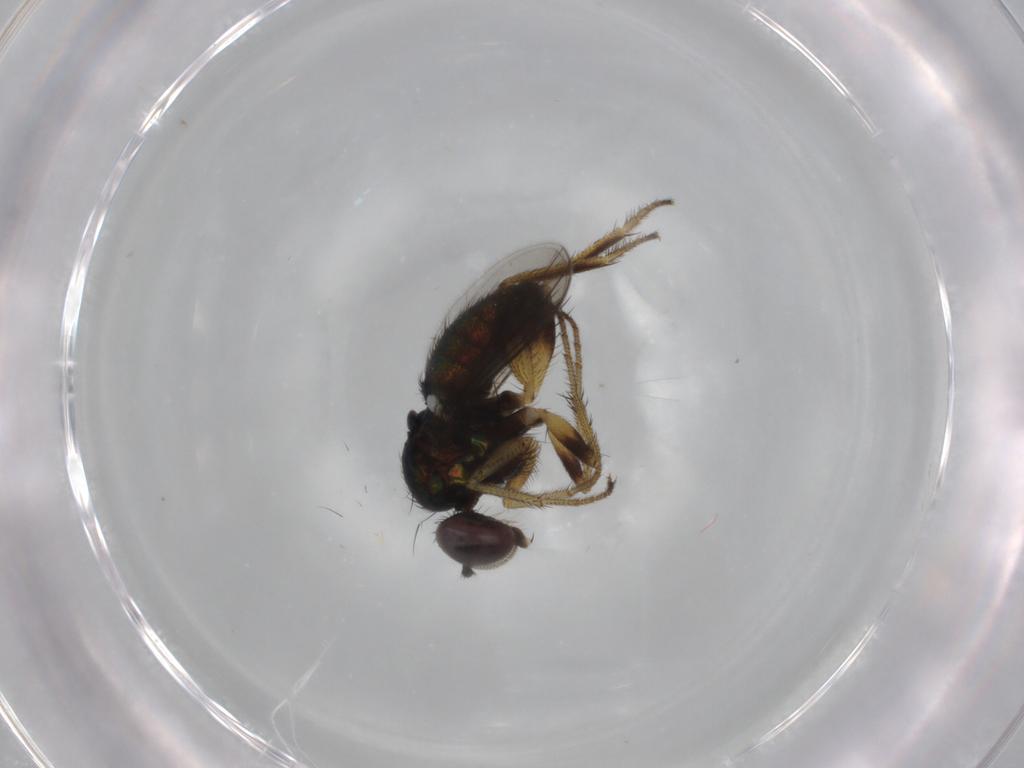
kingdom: Animalia
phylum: Arthropoda
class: Insecta
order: Diptera
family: Dolichopodidae
